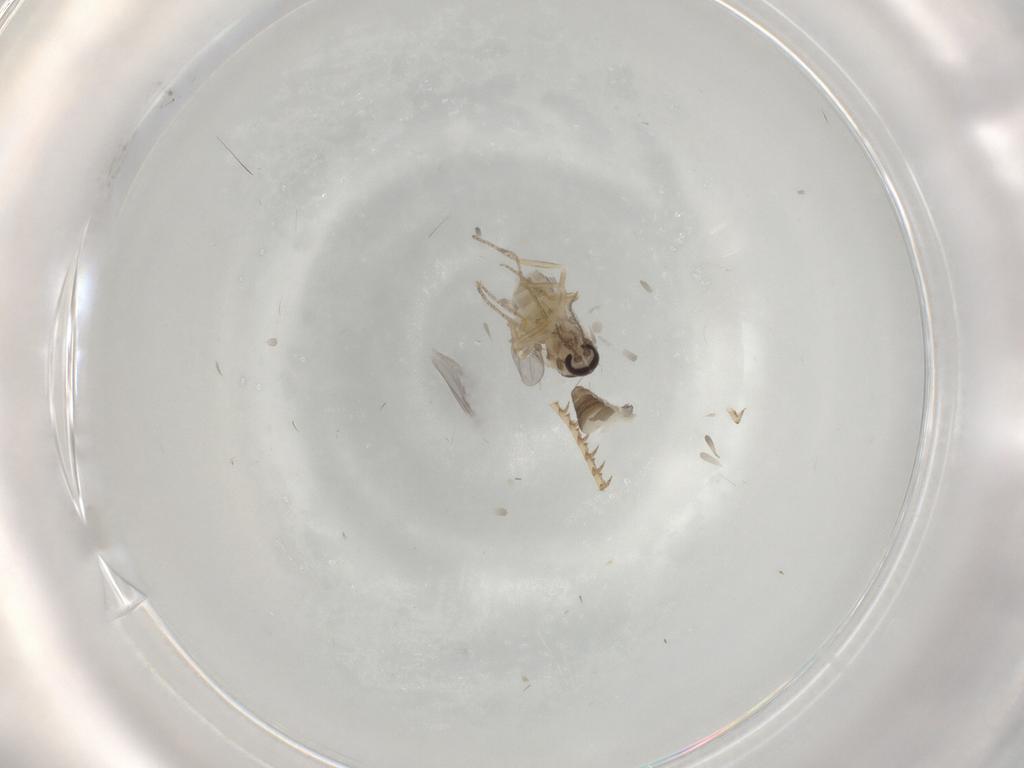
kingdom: Animalia
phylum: Arthropoda
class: Insecta
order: Diptera
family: Ceratopogonidae
